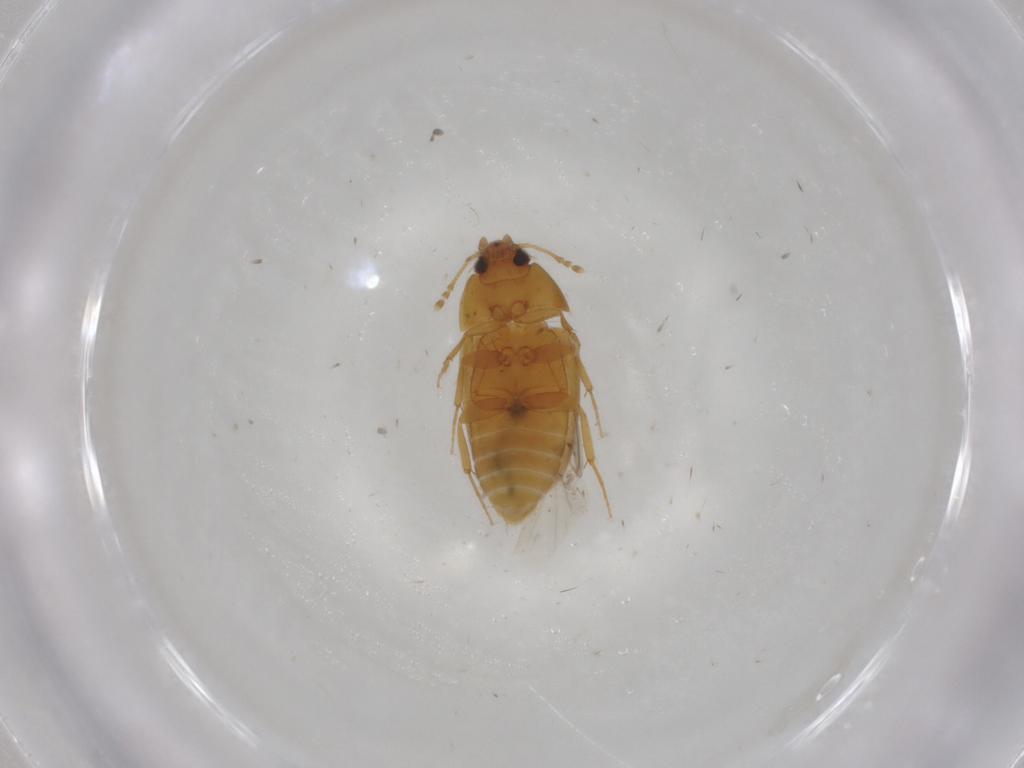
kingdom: Animalia
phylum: Arthropoda
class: Insecta
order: Coleoptera
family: Mycetophagidae
